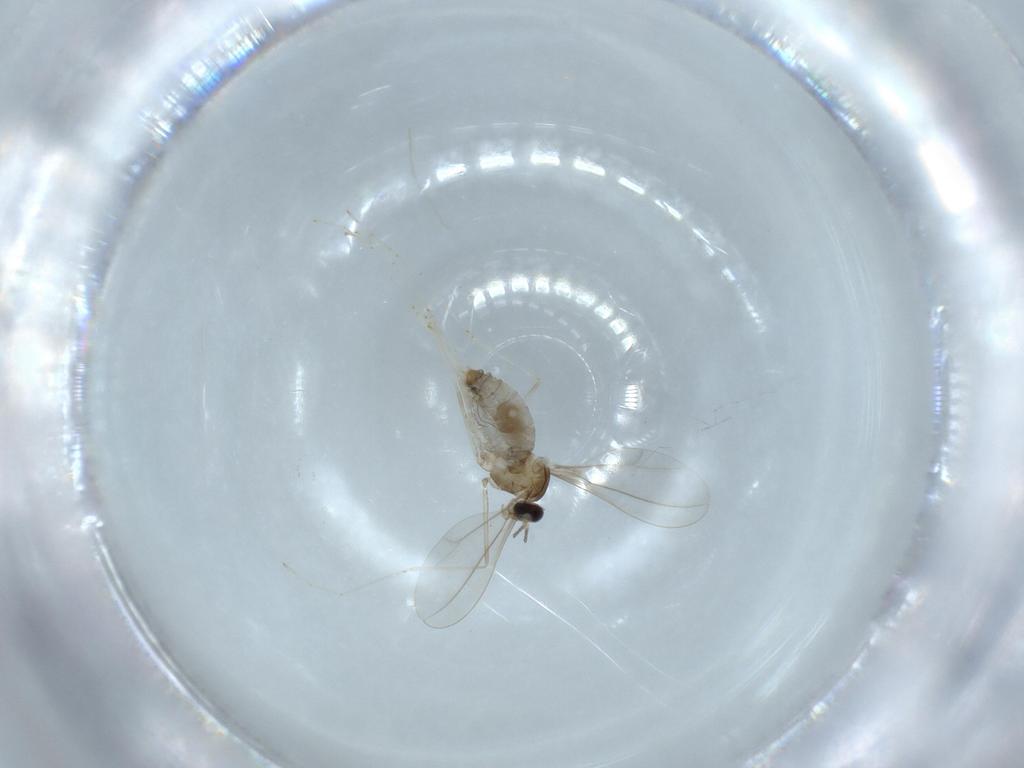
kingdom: Animalia
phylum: Arthropoda
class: Insecta
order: Diptera
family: Cecidomyiidae
